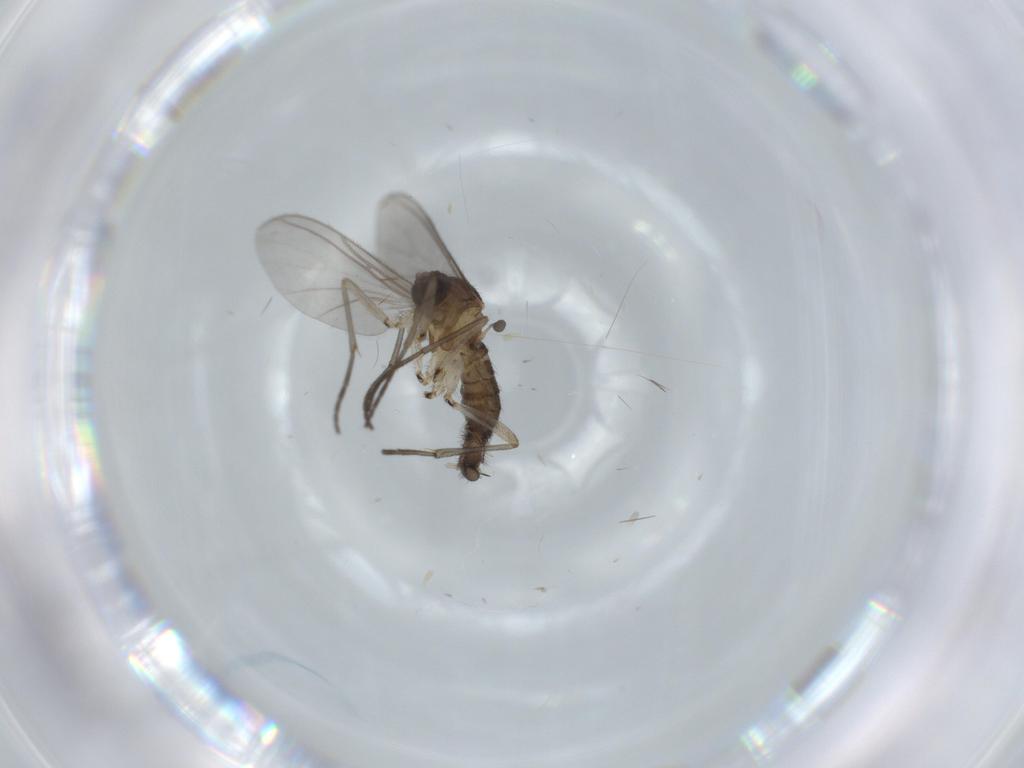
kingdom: Animalia
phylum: Arthropoda
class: Insecta
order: Diptera
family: Sciaridae
